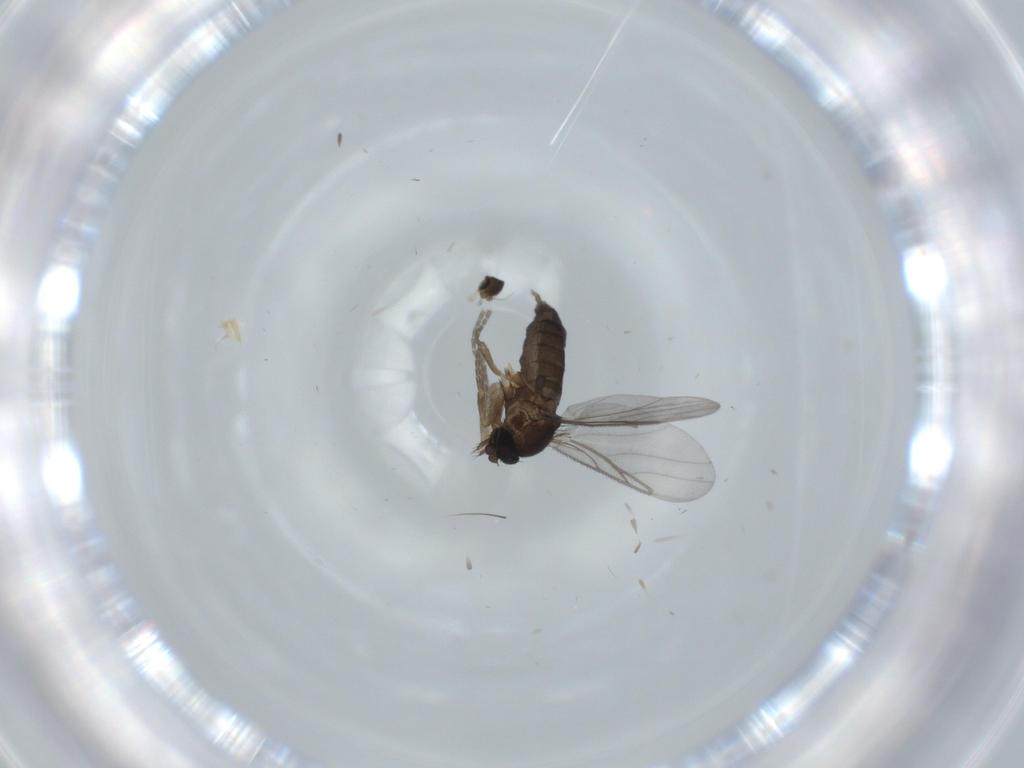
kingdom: Animalia
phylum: Arthropoda
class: Insecta
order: Diptera
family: Phoridae
